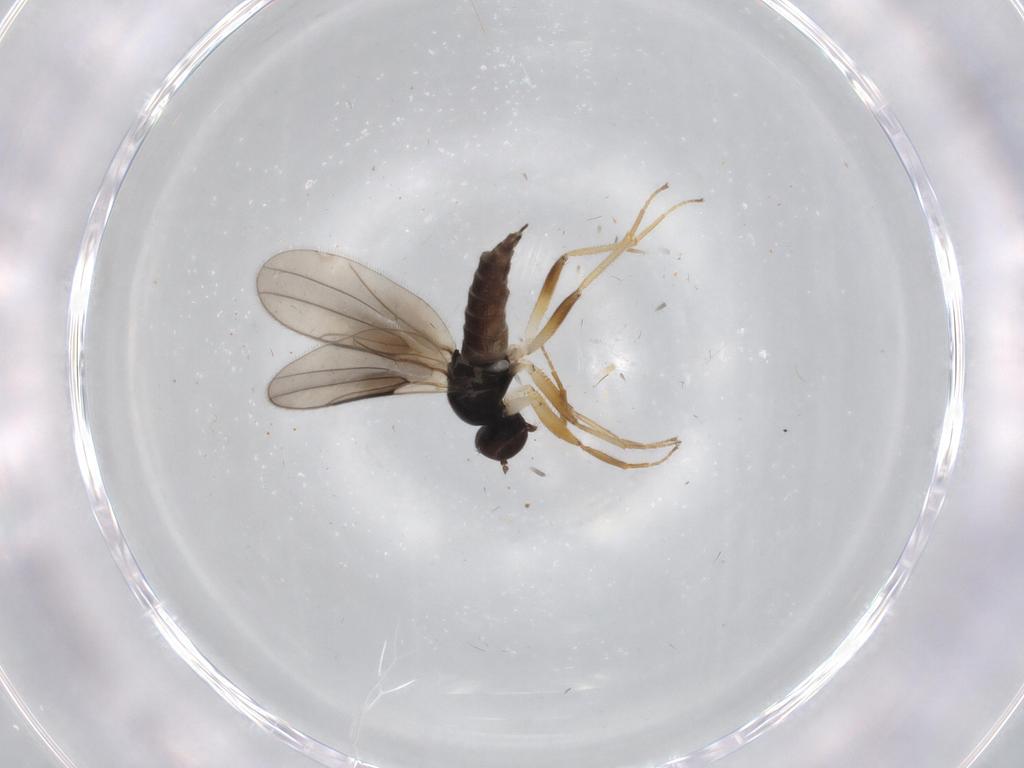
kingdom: Animalia
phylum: Arthropoda
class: Insecta
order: Diptera
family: Hybotidae
